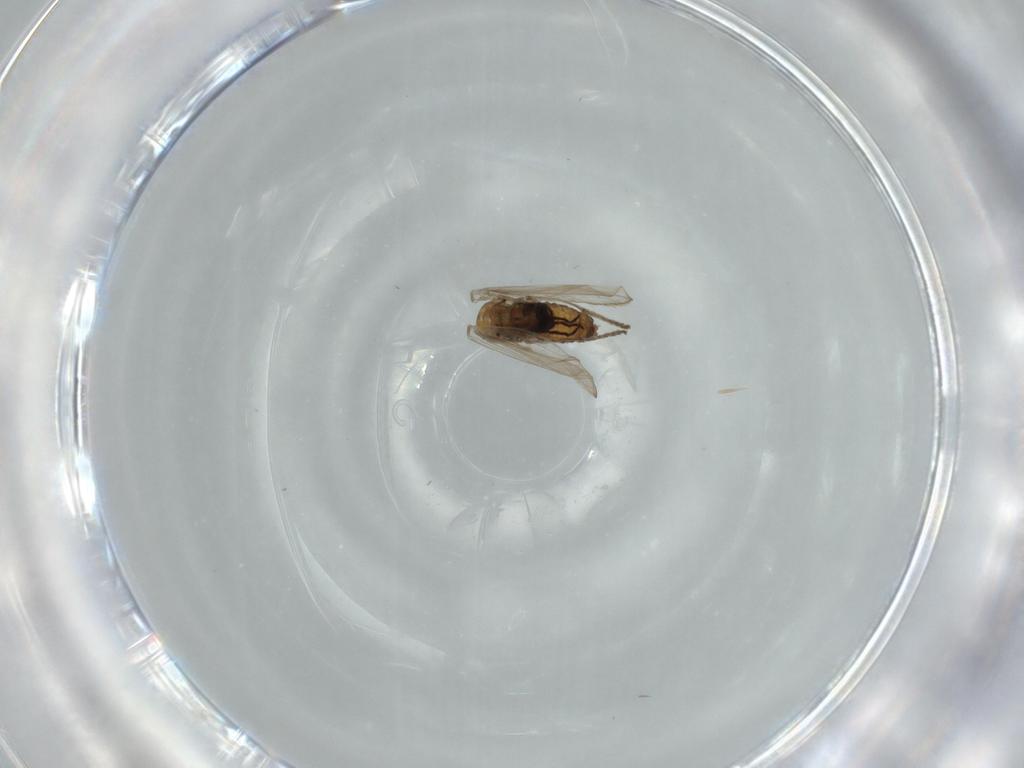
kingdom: Animalia
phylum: Arthropoda
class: Insecta
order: Diptera
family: Psychodidae
